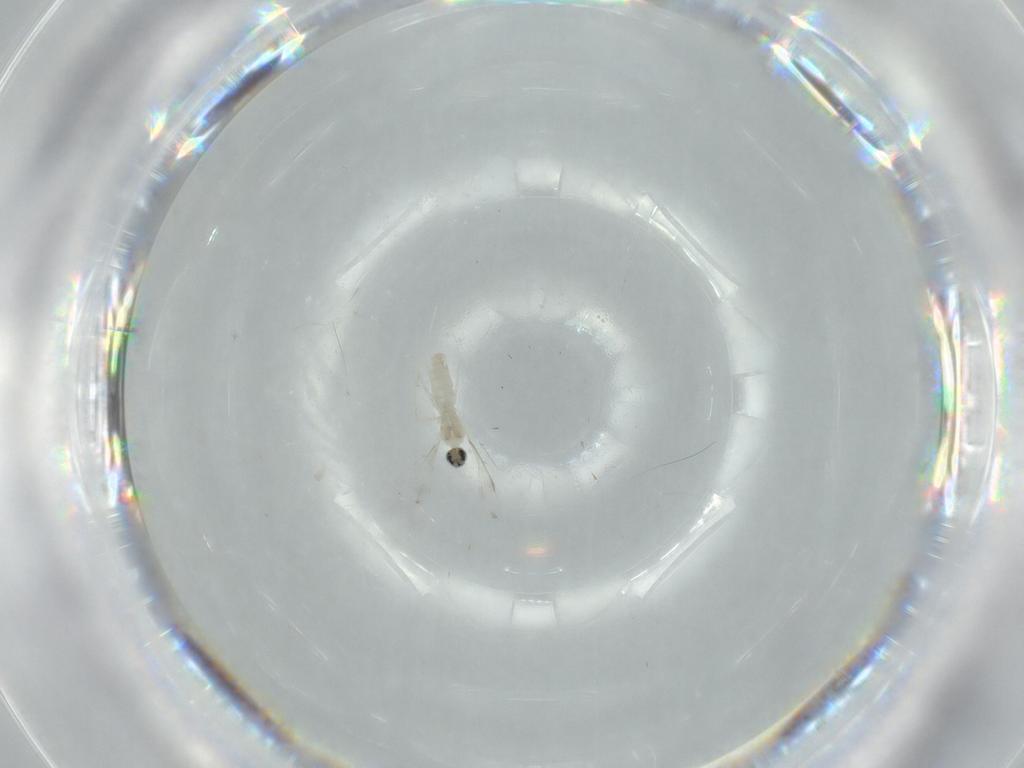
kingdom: Animalia
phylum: Arthropoda
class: Insecta
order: Diptera
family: Cecidomyiidae
